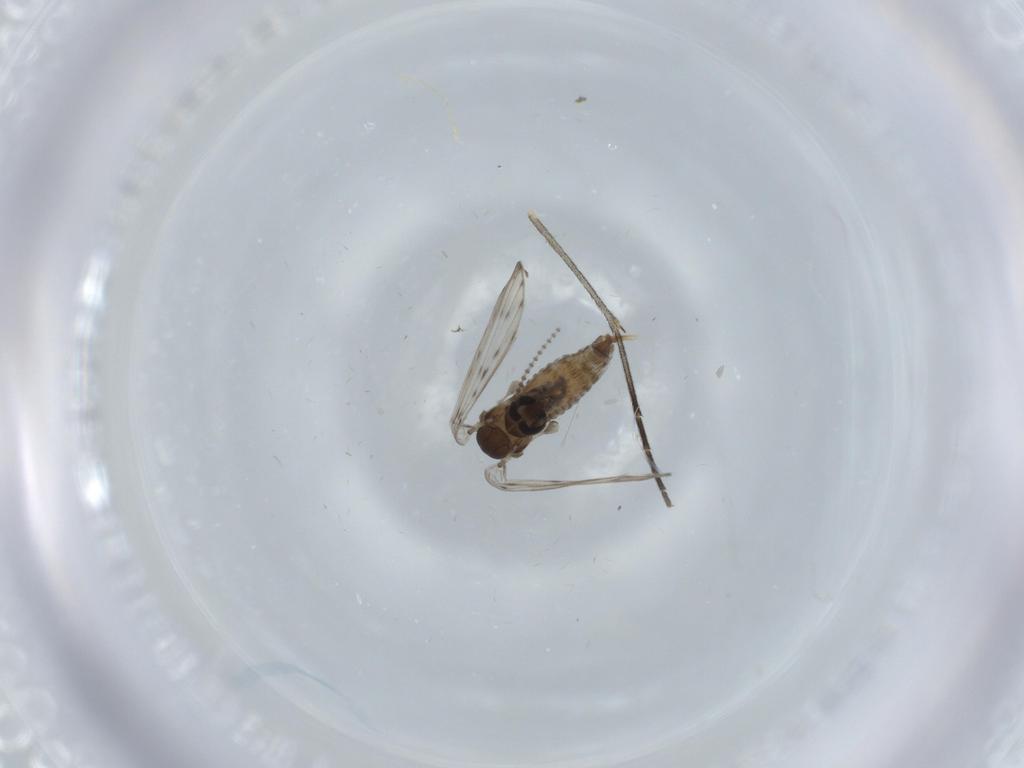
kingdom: Animalia
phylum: Arthropoda
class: Insecta
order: Diptera
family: Psychodidae
